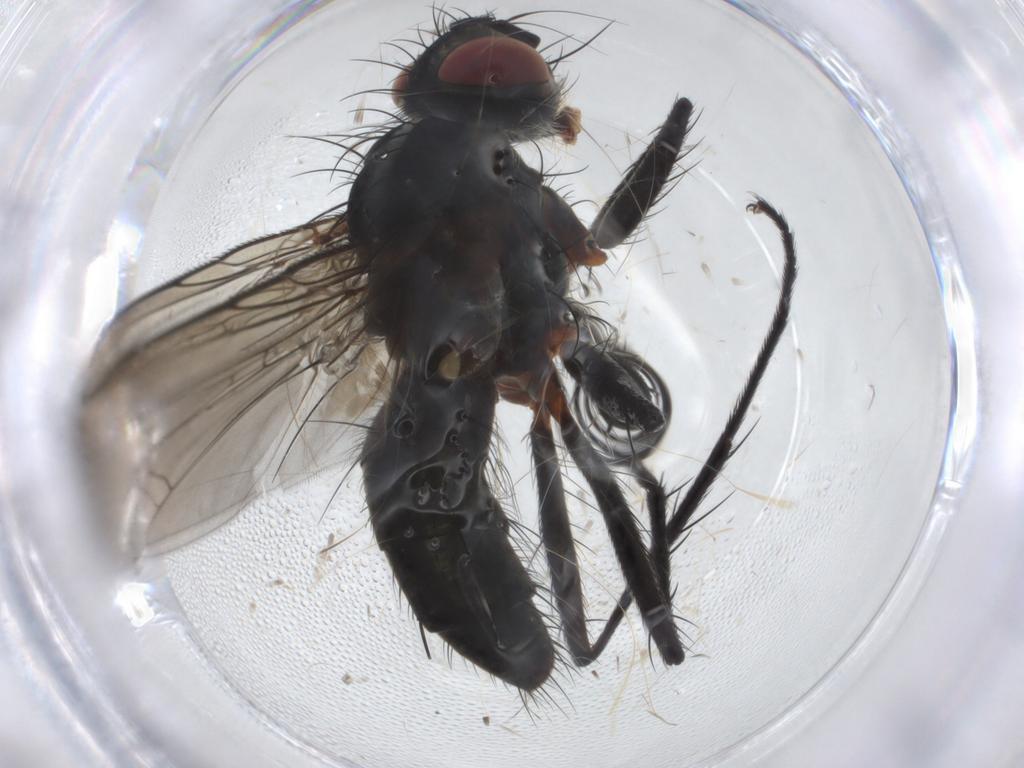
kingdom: Animalia
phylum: Arthropoda
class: Insecta
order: Diptera
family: Tachinidae
